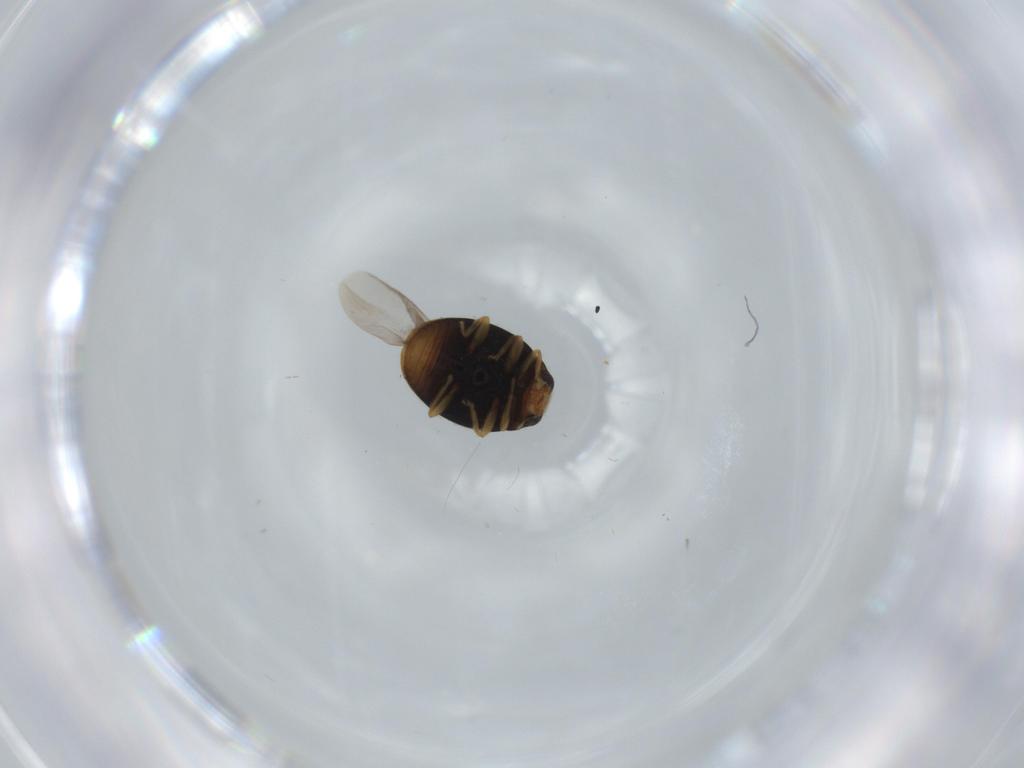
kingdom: Animalia
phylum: Arthropoda
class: Insecta
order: Coleoptera
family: Coccinellidae
